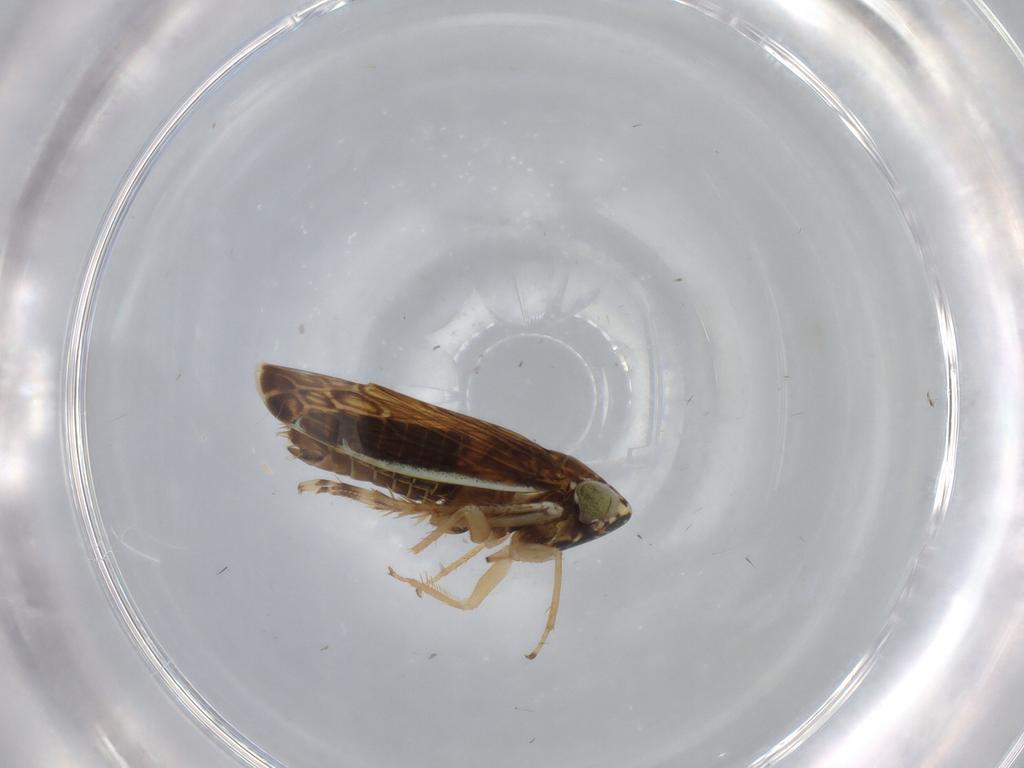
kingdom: Animalia
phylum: Arthropoda
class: Insecta
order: Hemiptera
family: Cicadellidae
